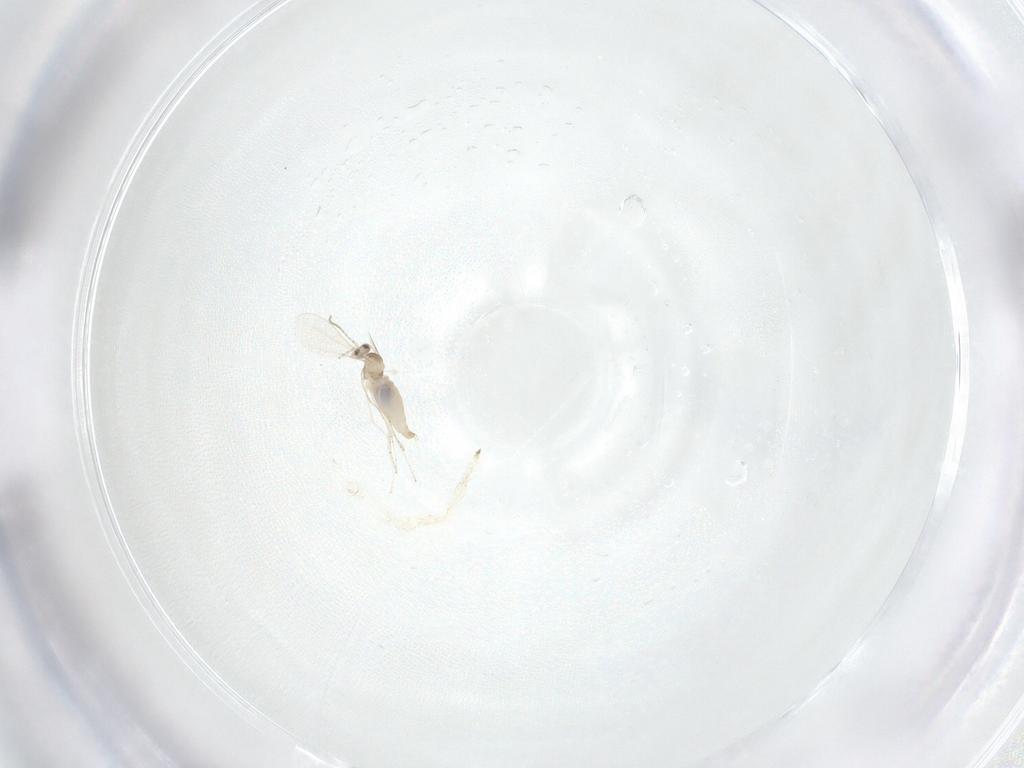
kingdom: Animalia
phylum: Arthropoda
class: Insecta
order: Diptera
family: Cecidomyiidae
